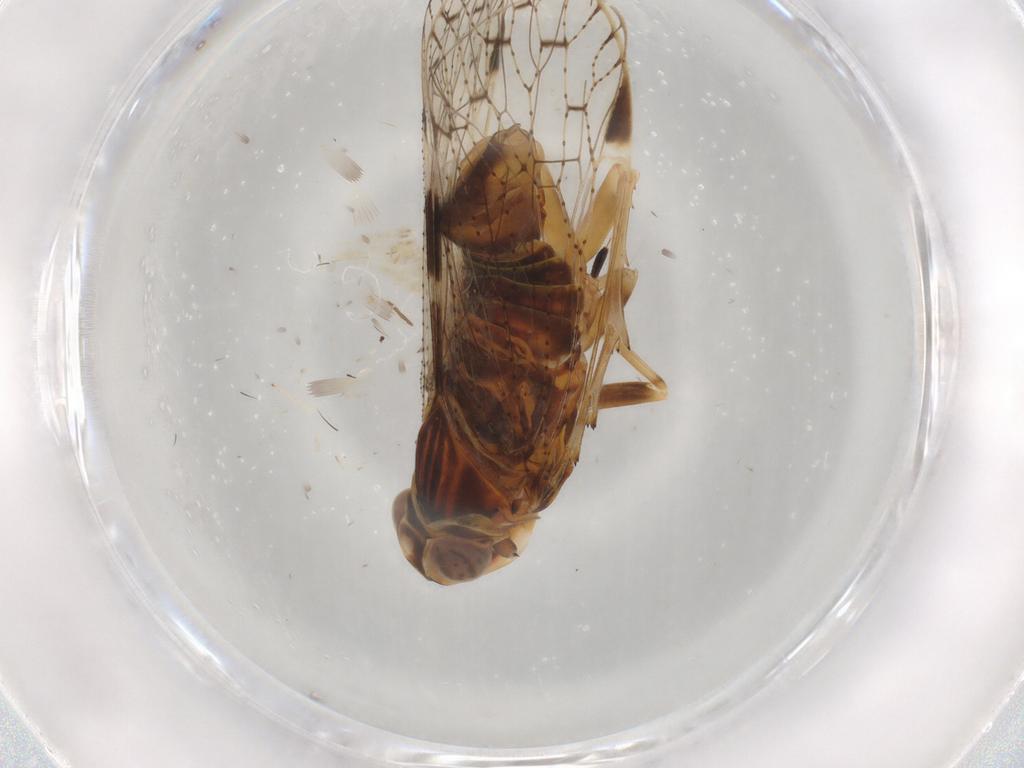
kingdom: Animalia
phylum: Arthropoda
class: Insecta
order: Hemiptera
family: Cixiidae
